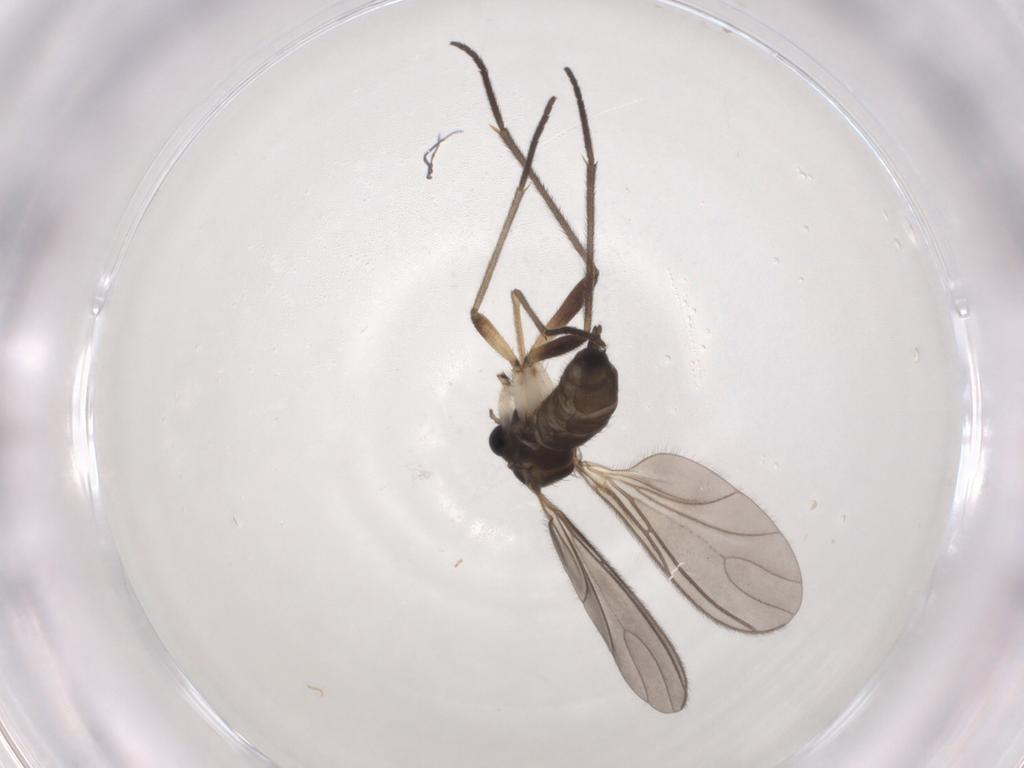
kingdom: Animalia
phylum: Arthropoda
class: Insecta
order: Diptera
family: Sciaridae
